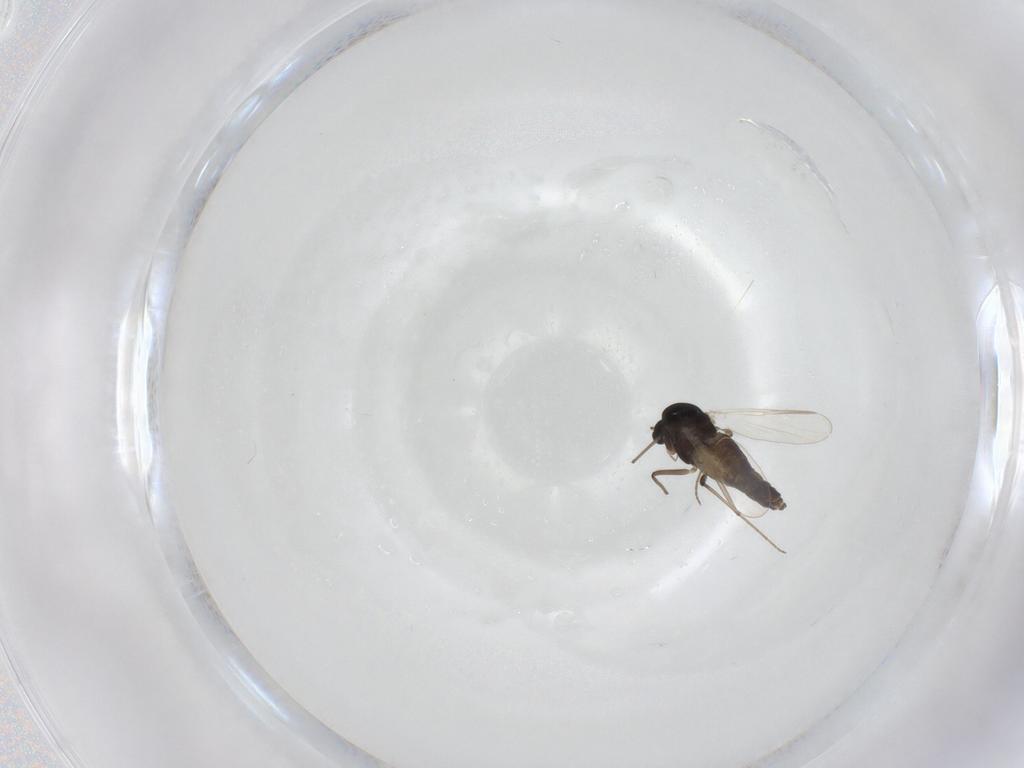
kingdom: Animalia
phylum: Arthropoda
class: Insecta
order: Diptera
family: Chironomidae
